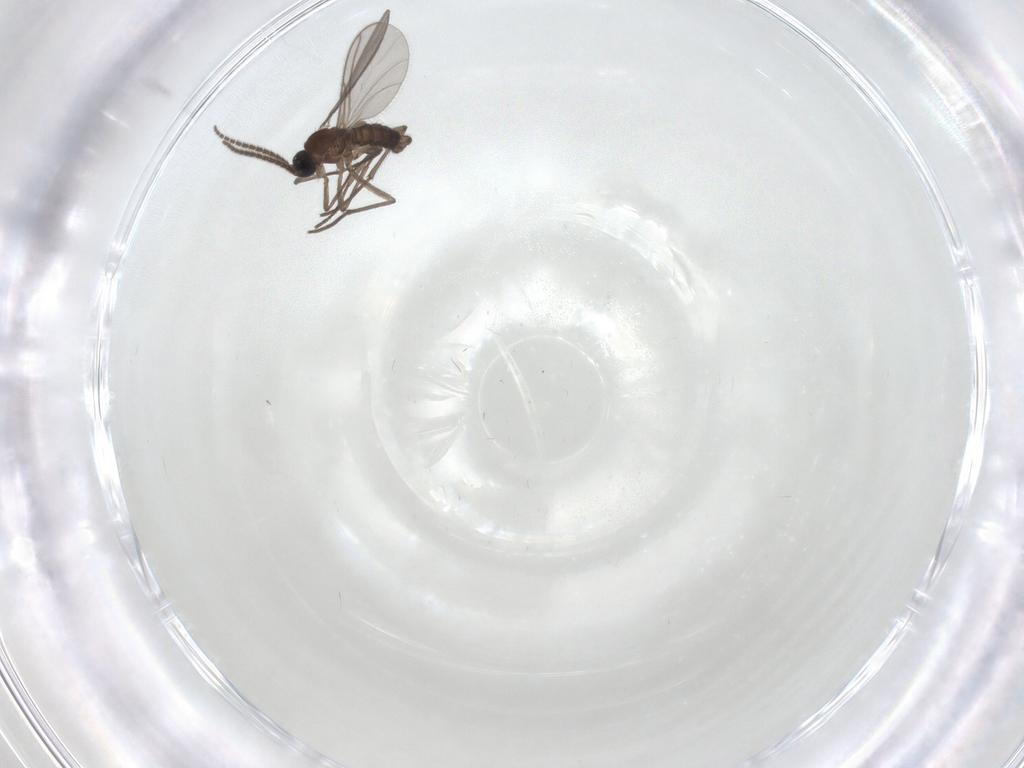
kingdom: Animalia
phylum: Arthropoda
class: Insecta
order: Diptera
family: Sciaridae
